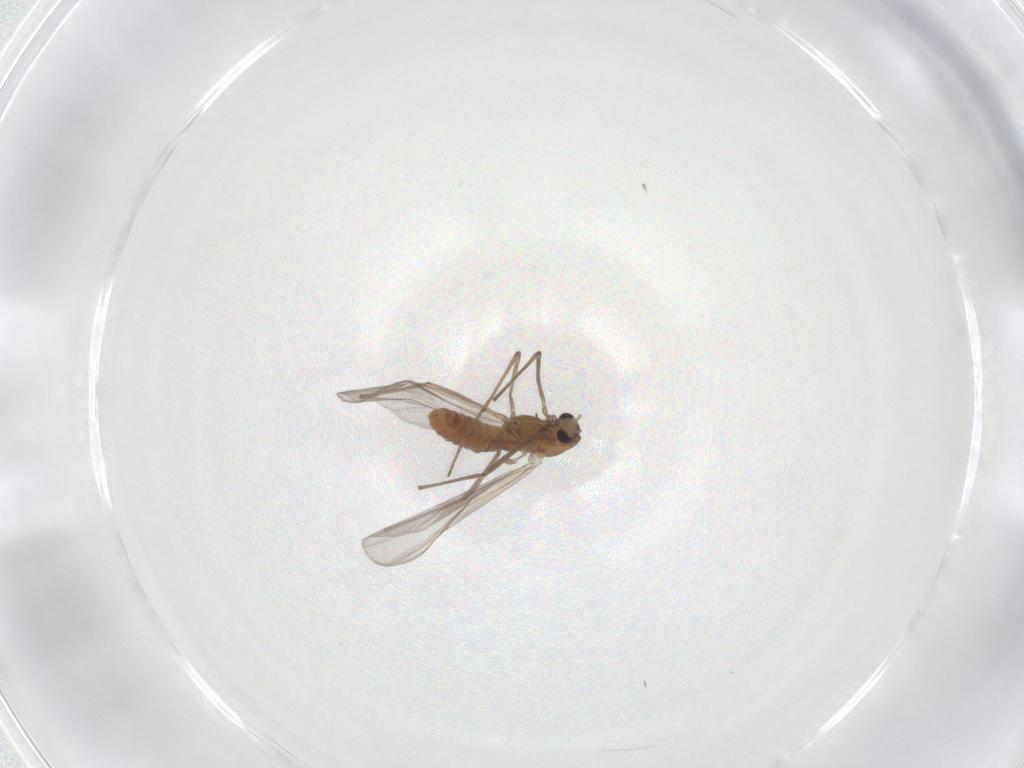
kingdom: Animalia
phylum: Arthropoda
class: Insecta
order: Diptera
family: Chironomidae
